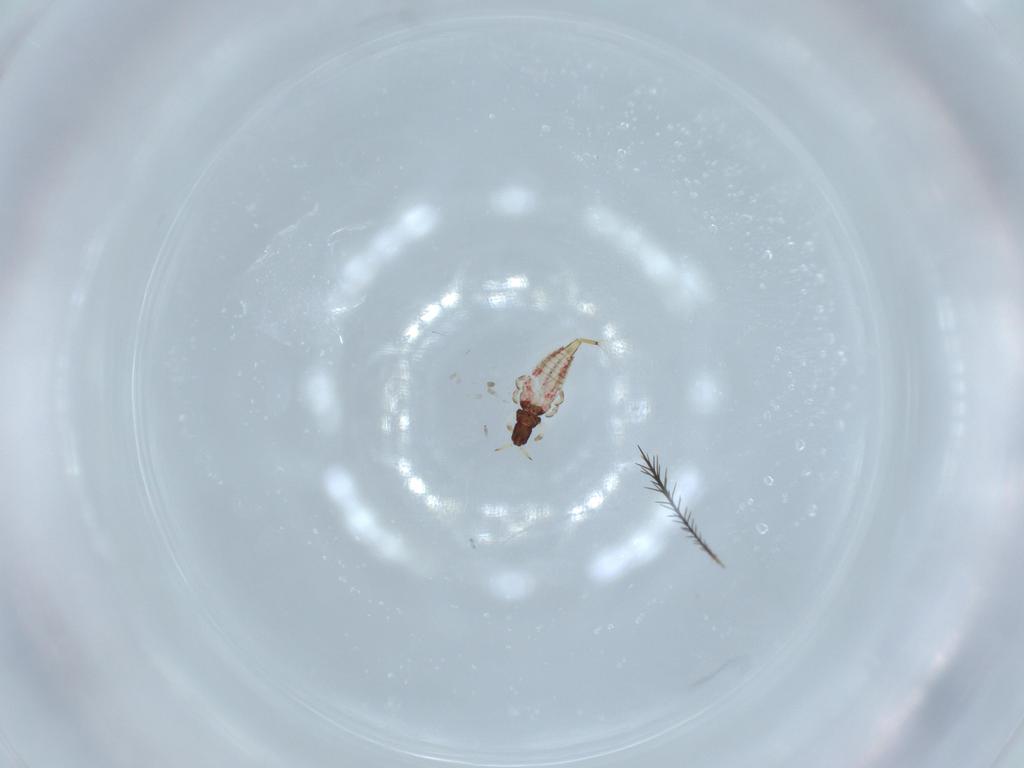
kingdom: Animalia
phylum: Arthropoda
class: Insecta
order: Thysanoptera
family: Phlaeothripidae
